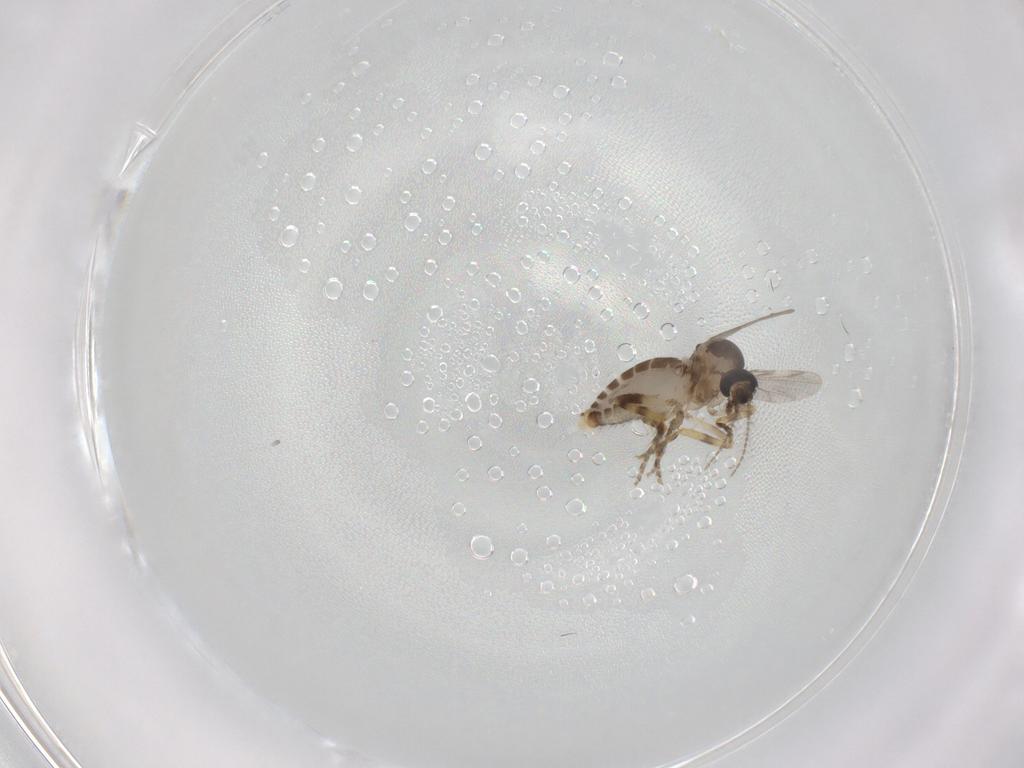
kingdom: Animalia
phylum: Arthropoda
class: Insecta
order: Diptera
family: Ceratopogonidae
